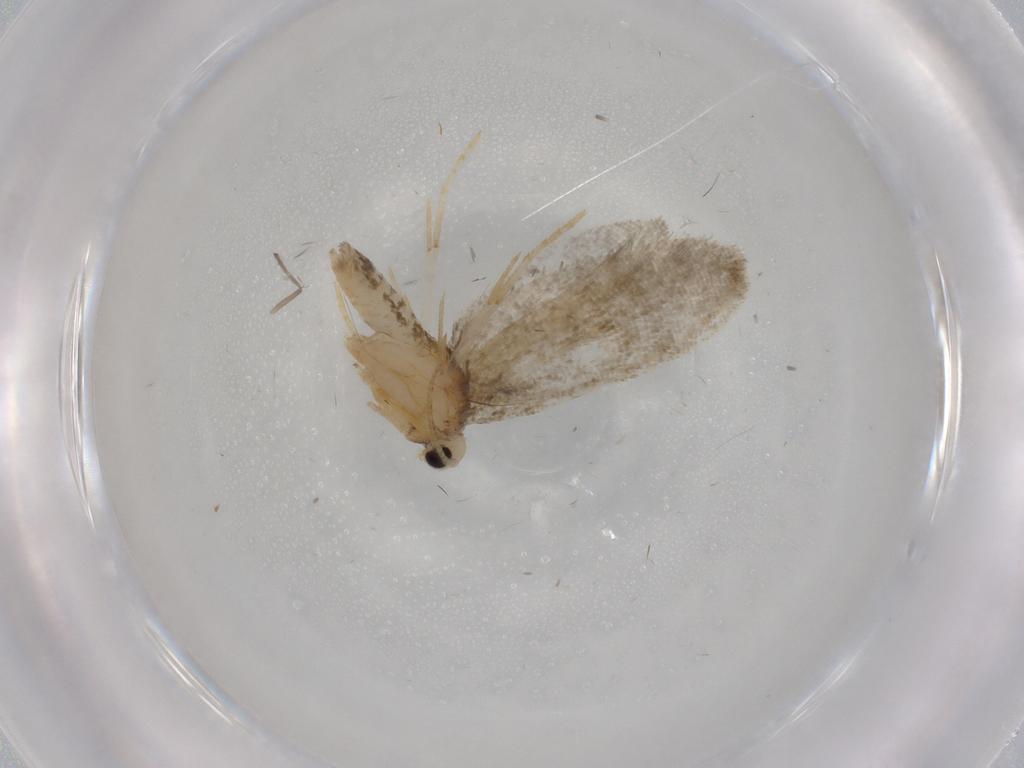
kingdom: Animalia
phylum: Arthropoda
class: Insecta
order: Lepidoptera
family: Psychidae
